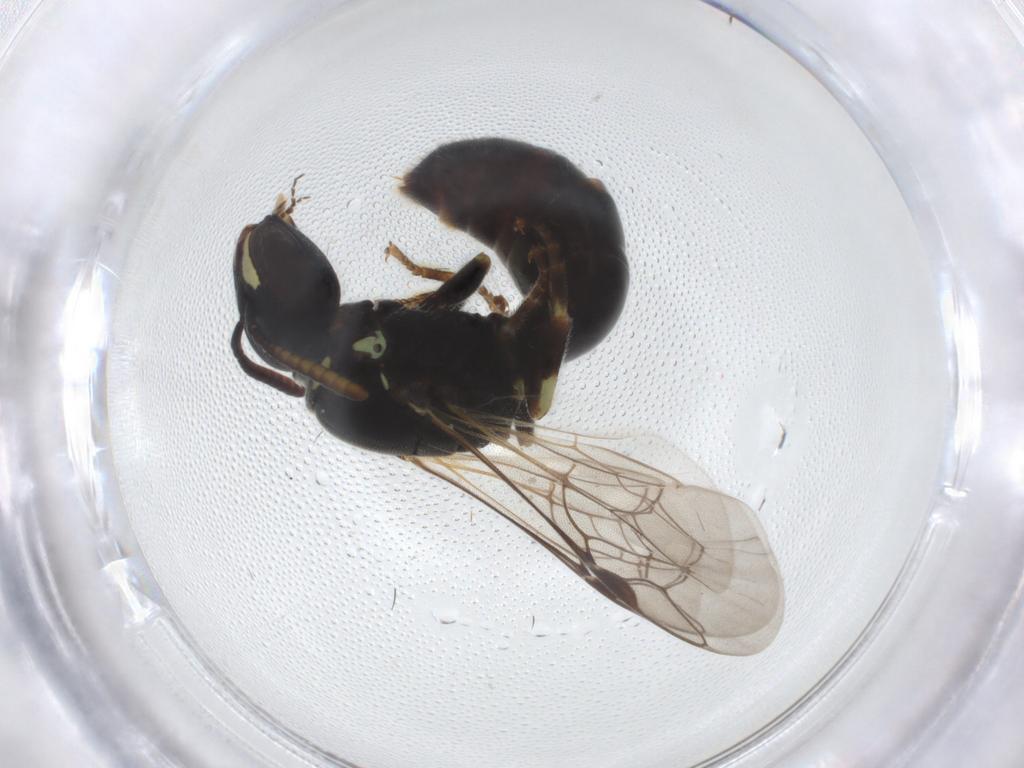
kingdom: Animalia
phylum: Arthropoda
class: Insecta
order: Hymenoptera
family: Colletidae
